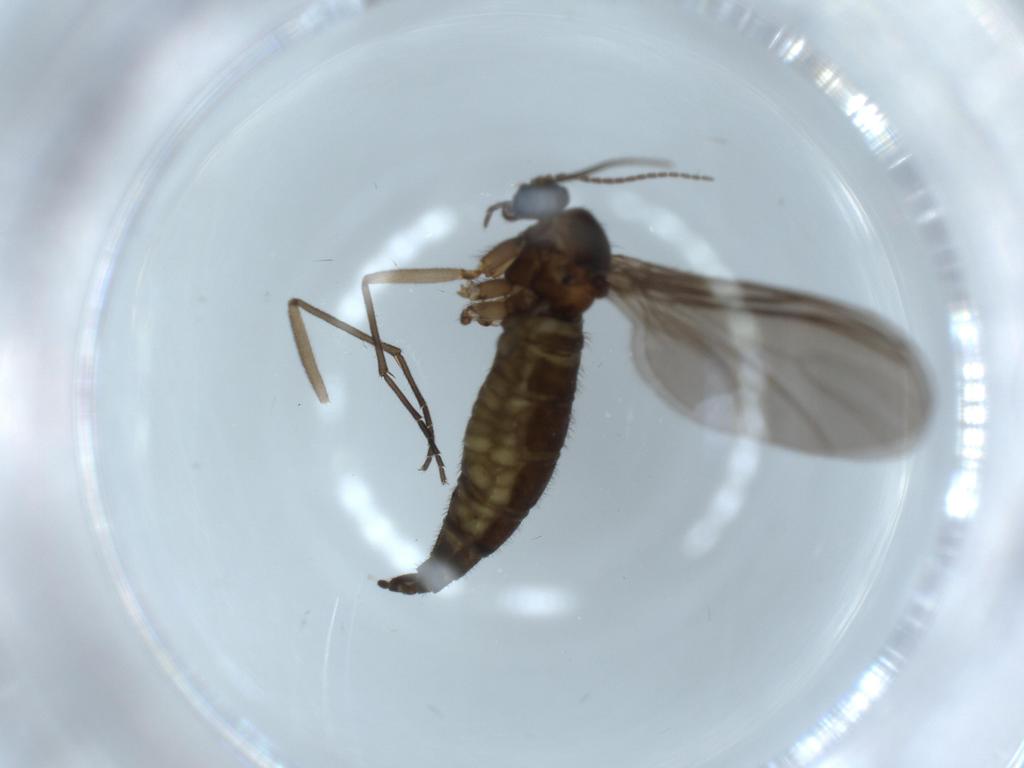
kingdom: Animalia
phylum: Arthropoda
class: Insecta
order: Diptera
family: Sciaridae
